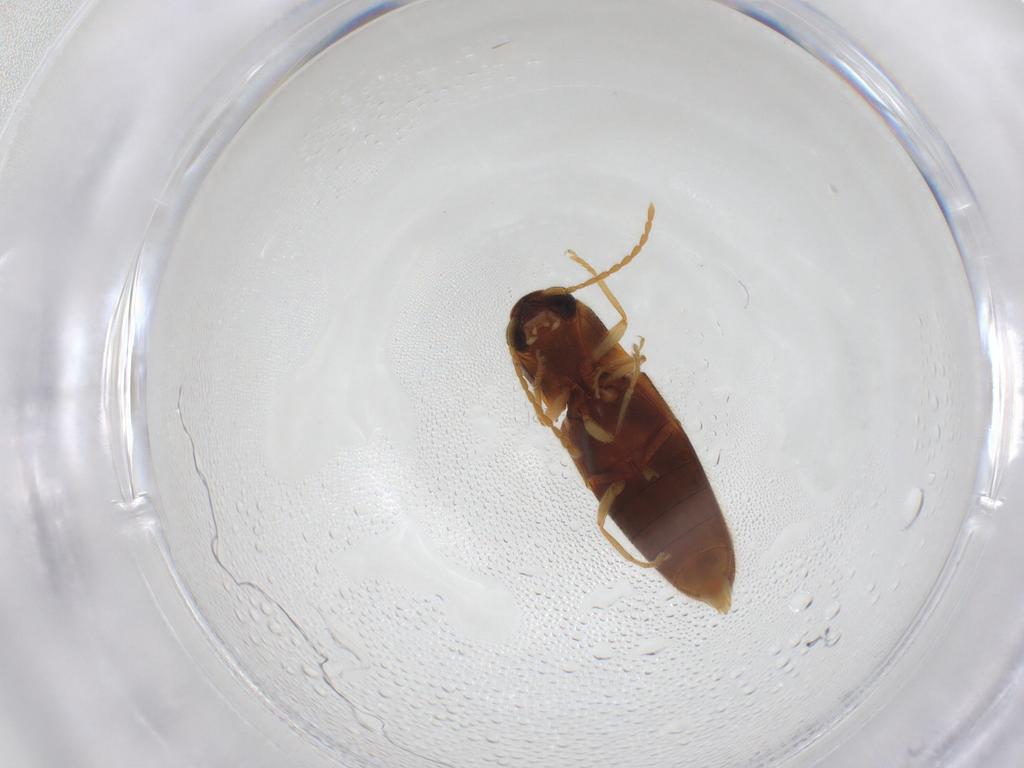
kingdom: Animalia
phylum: Arthropoda
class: Insecta
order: Coleoptera
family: Elateridae
